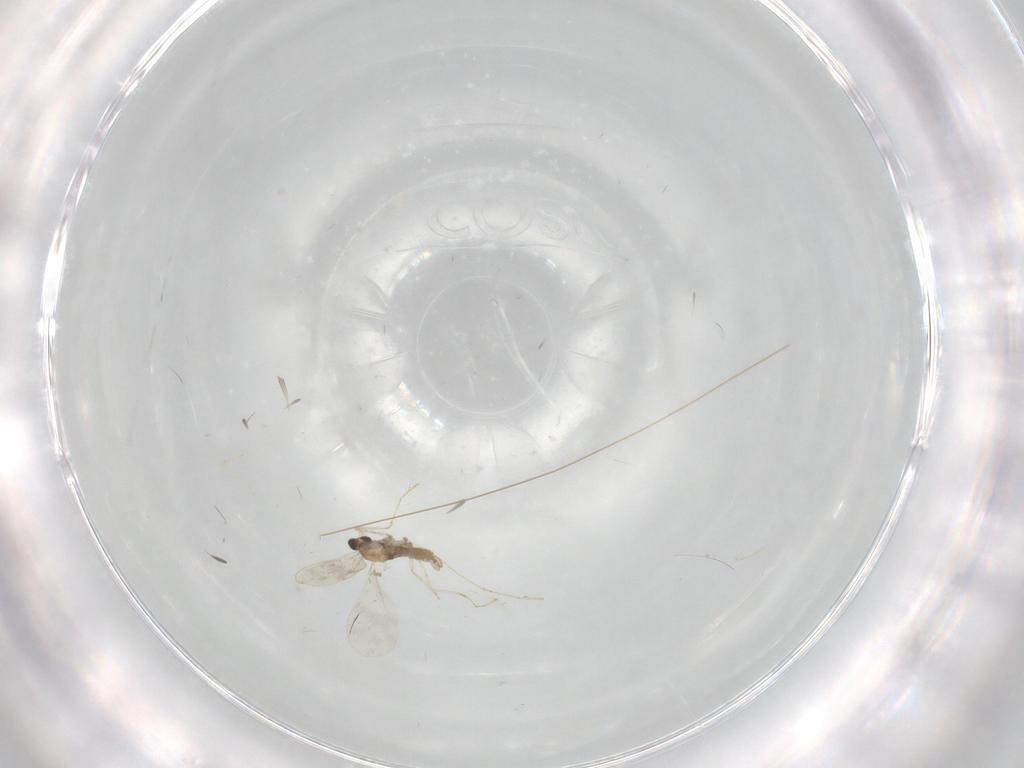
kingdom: Animalia
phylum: Arthropoda
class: Insecta
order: Diptera
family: Cecidomyiidae
